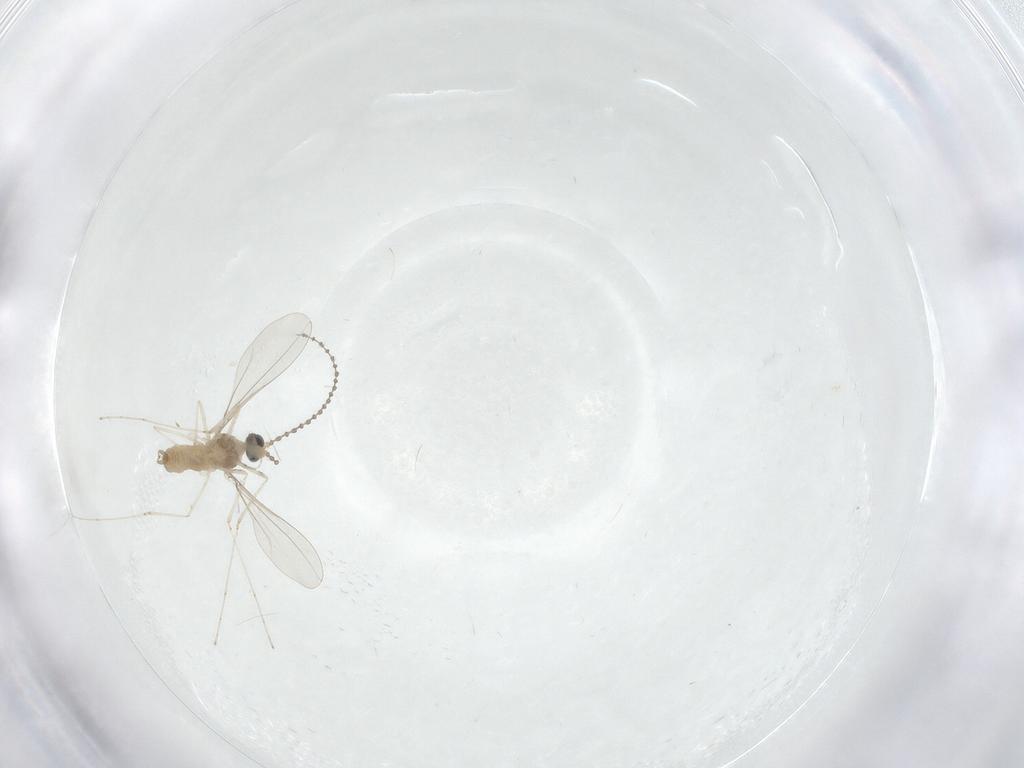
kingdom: Animalia
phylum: Arthropoda
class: Insecta
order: Diptera
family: Cecidomyiidae
